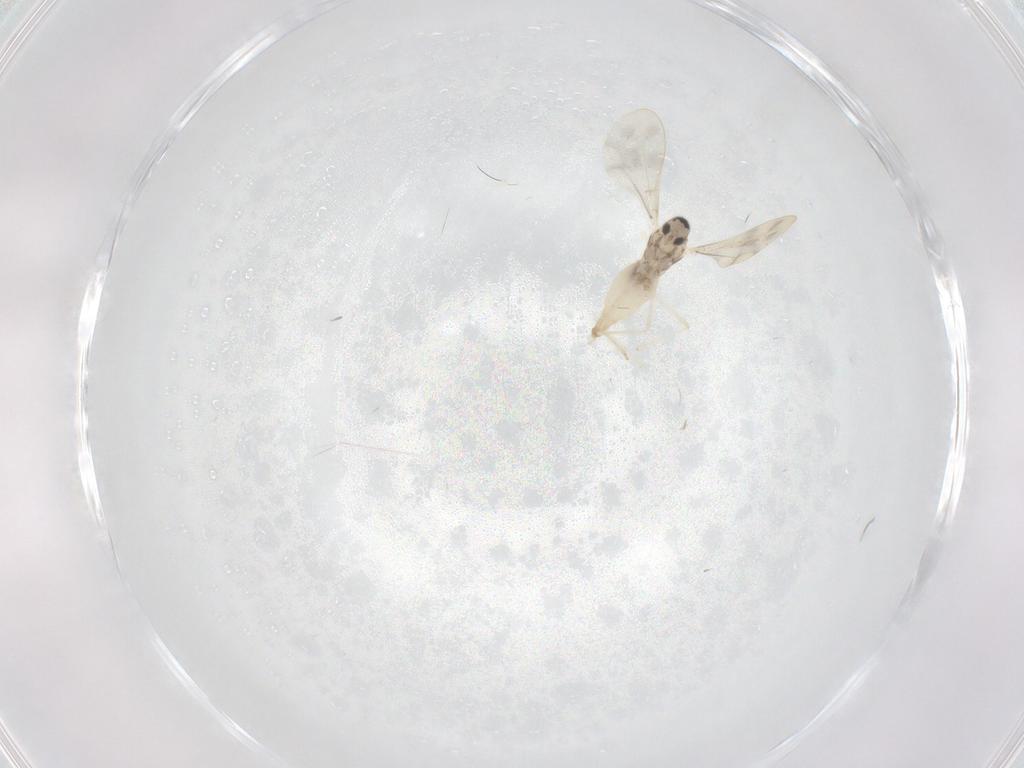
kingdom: Animalia
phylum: Arthropoda
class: Insecta
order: Diptera
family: Cecidomyiidae
